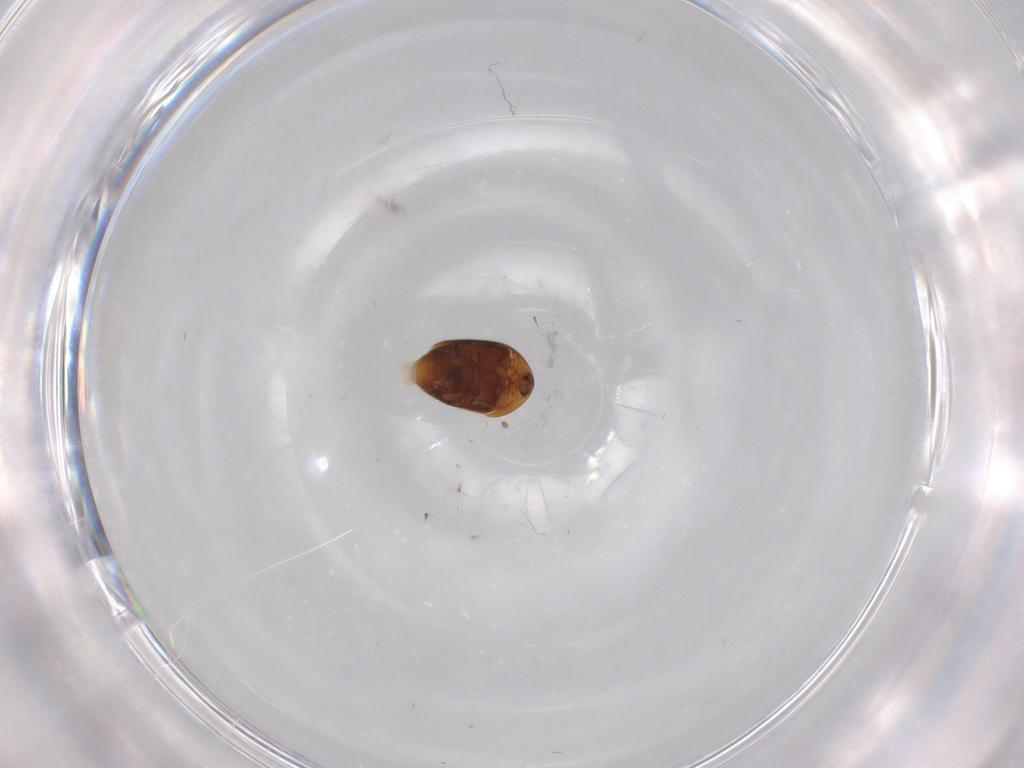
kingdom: Animalia
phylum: Arthropoda
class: Insecta
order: Coleoptera
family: Corylophidae
